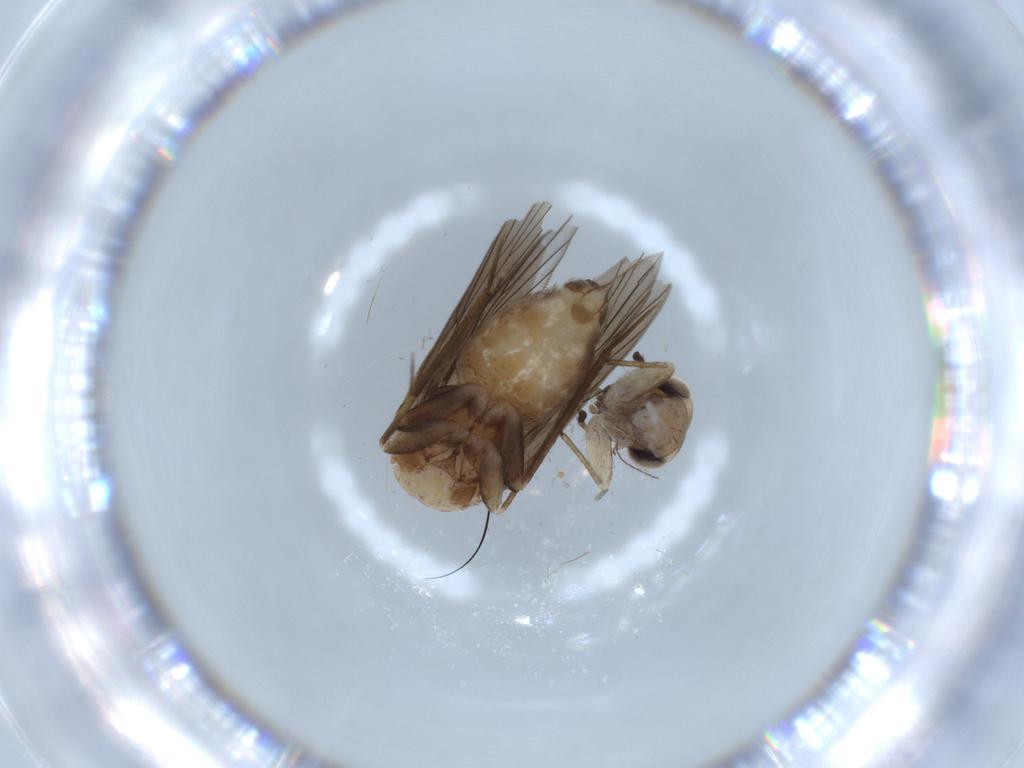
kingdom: Animalia
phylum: Arthropoda
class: Insecta
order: Psocodea
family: Lepidopsocidae
